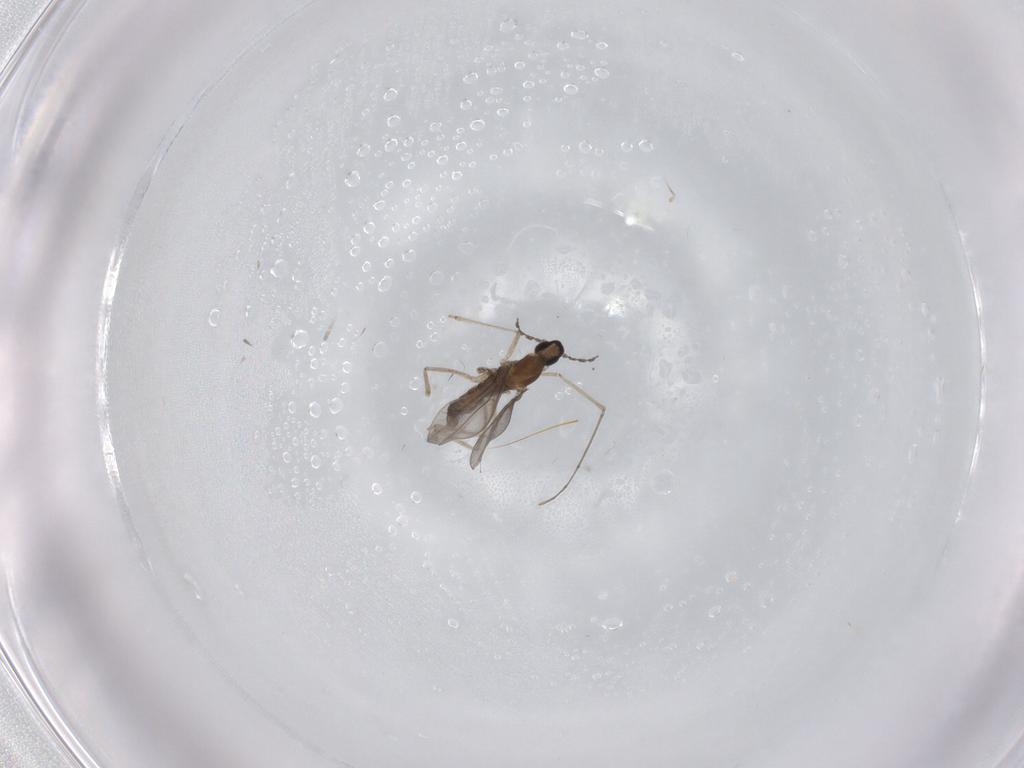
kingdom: Animalia
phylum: Arthropoda
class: Insecta
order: Diptera
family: Cecidomyiidae
